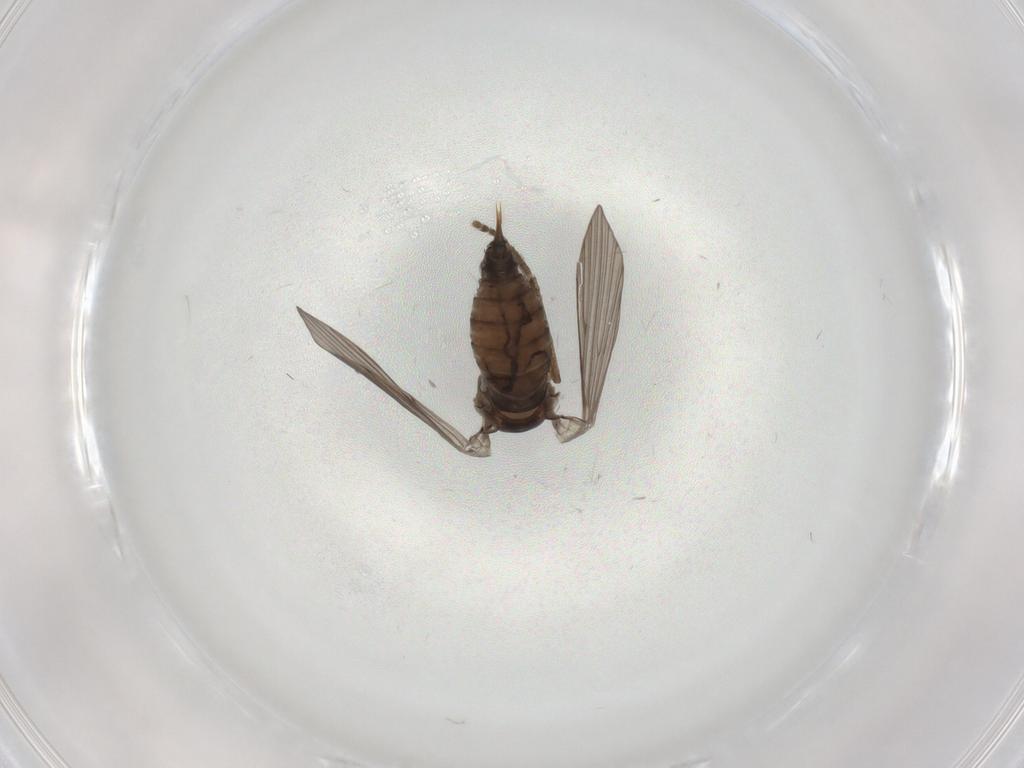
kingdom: Animalia
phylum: Arthropoda
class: Insecta
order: Diptera
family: Psychodidae
